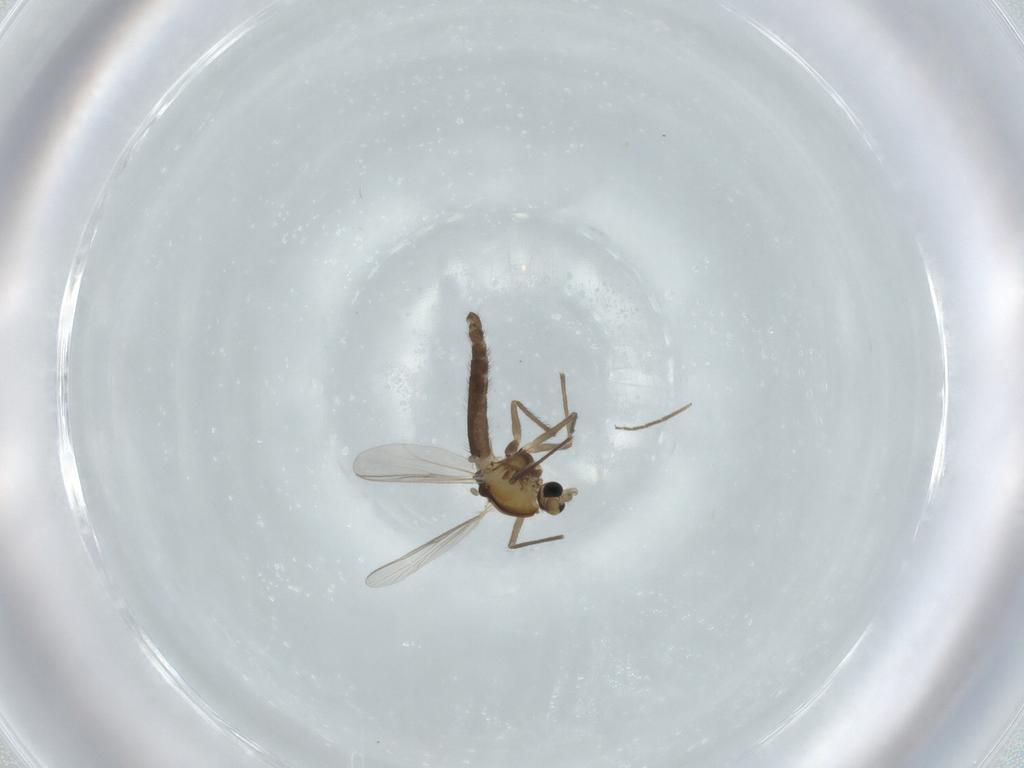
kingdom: Animalia
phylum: Arthropoda
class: Insecta
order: Diptera
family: Chironomidae
